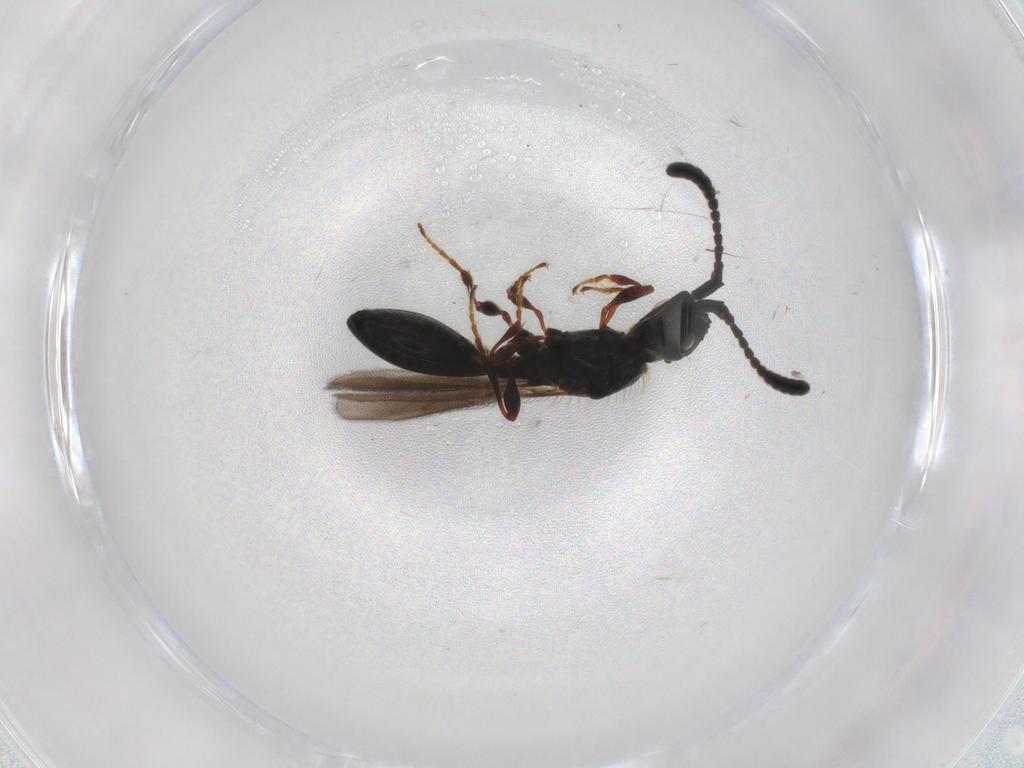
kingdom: Animalia
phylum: Arthropoda
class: Insecta
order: Hymenoptera
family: Diapriidae
